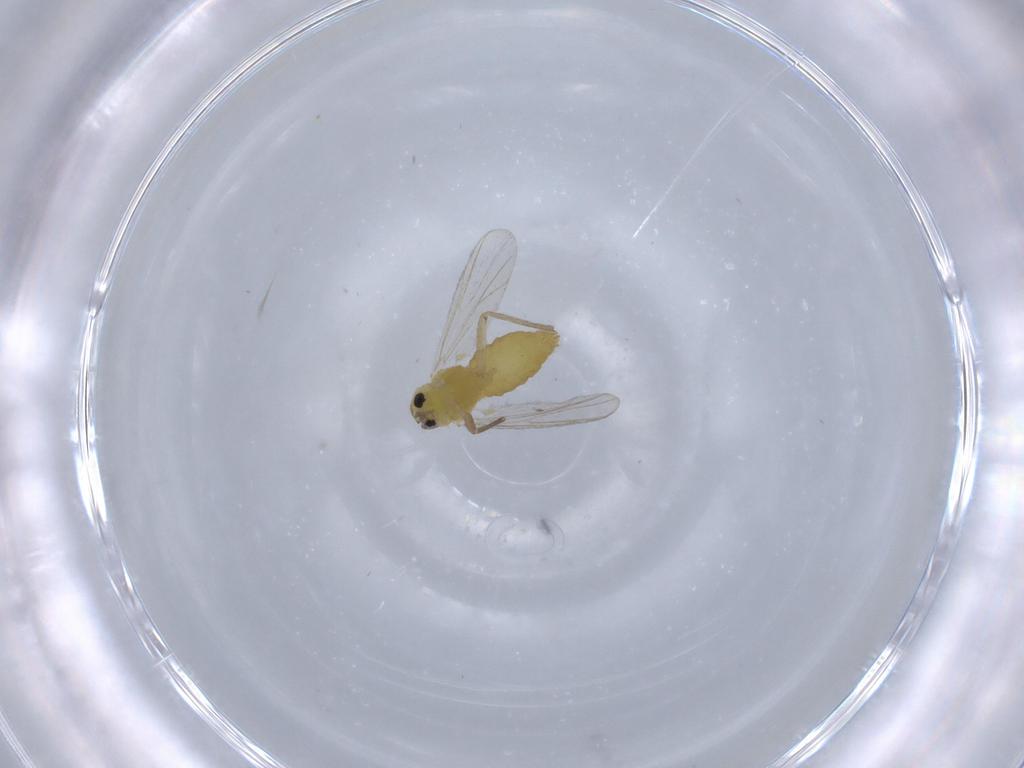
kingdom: Animalia
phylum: Arthropoda
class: Insecta
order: Diptera
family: Chironomidae
